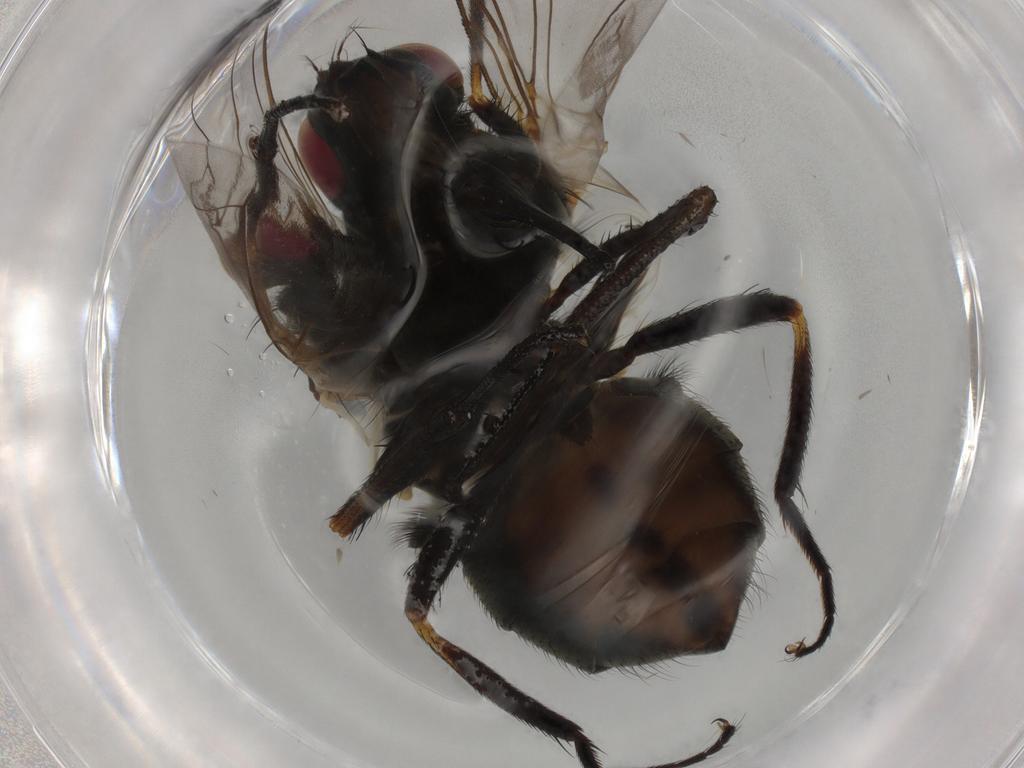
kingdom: Animalia
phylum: Arthropoda
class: Insecta
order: Diptera
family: Muscidae
